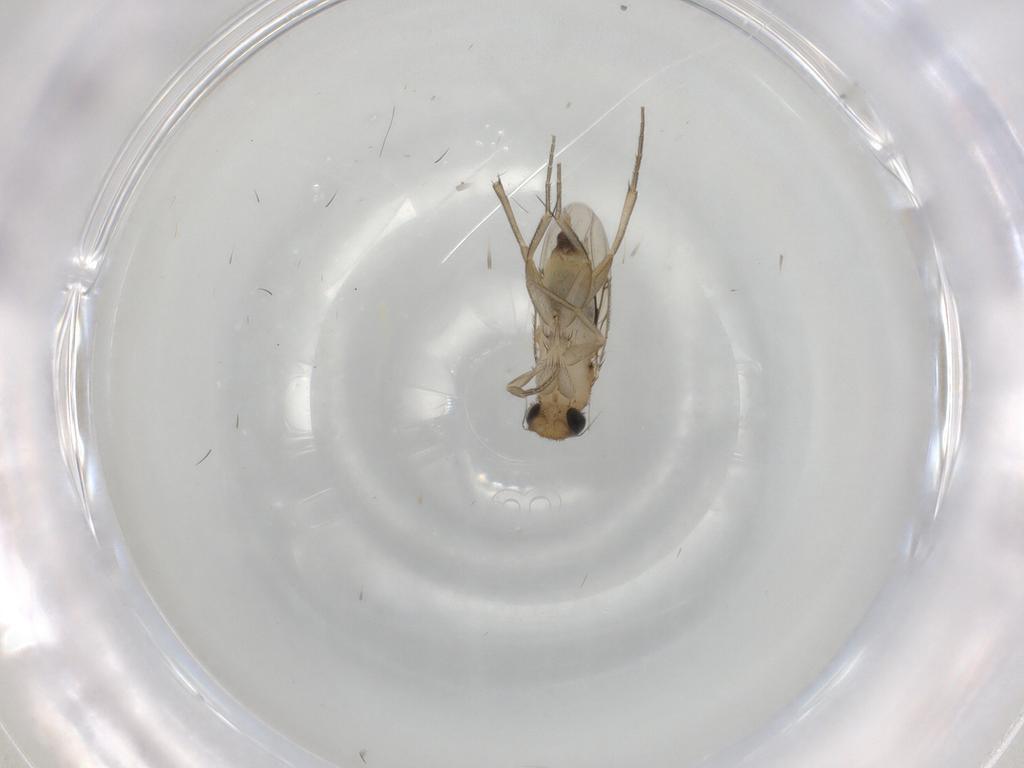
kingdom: Animalia
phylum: Arthropoda
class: Insecta
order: Diptera
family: Phoridae
